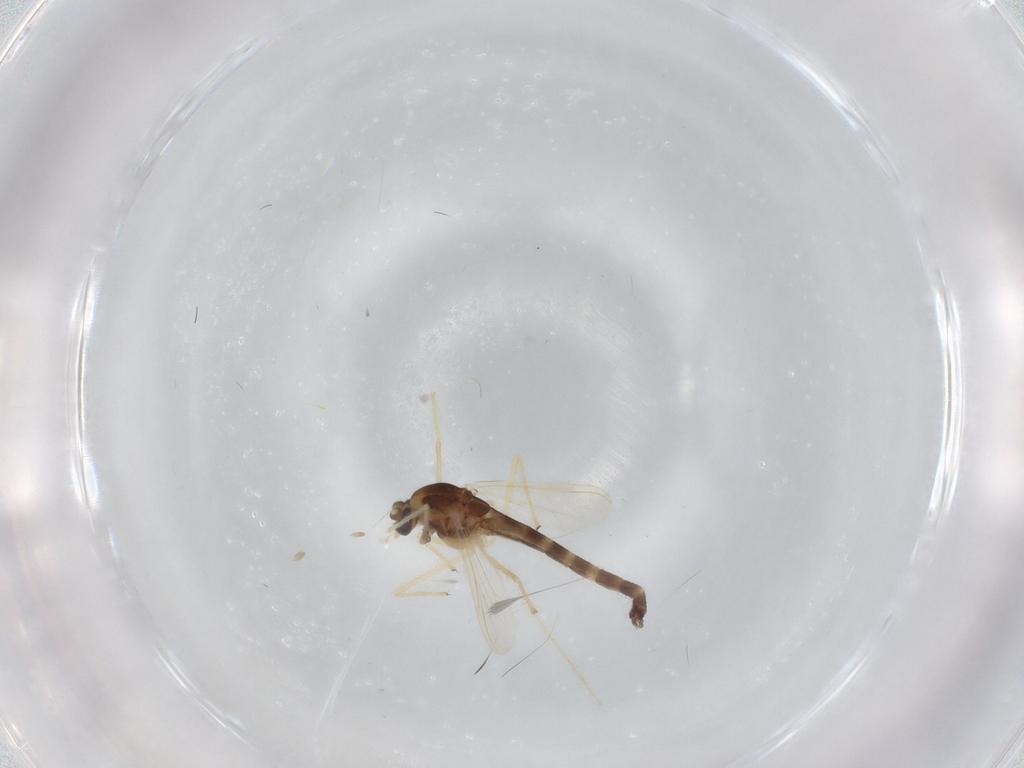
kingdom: Animalia
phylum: Arthropoda
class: Insecta
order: Diptera
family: Chironomidae
